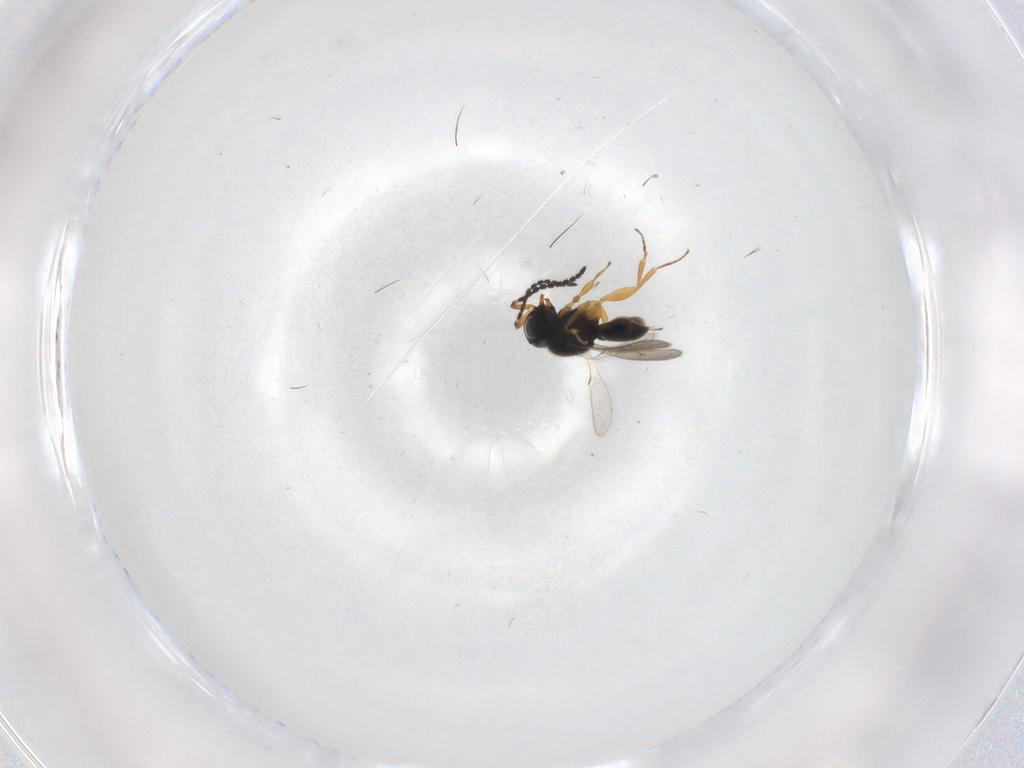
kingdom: Animalia
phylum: Arthropoda
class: Insecta
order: Hymenoptera
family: Scelionidae
